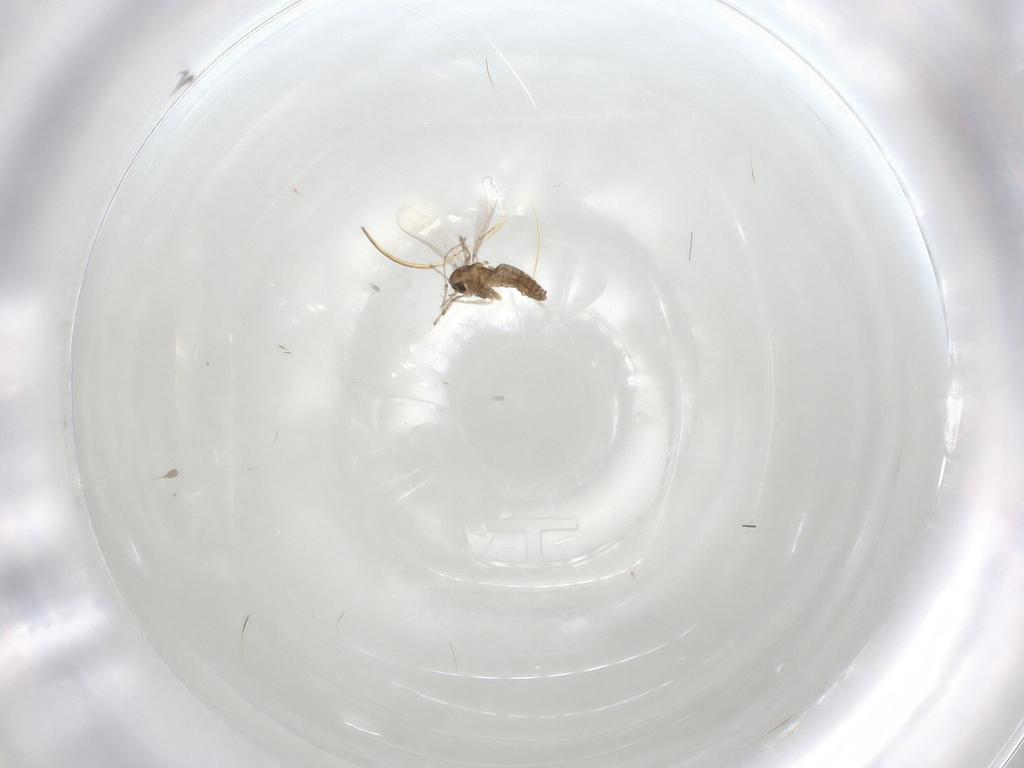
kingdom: Animalia
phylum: Arthropoda
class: Insecta
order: Diptera
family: Chironomidae
